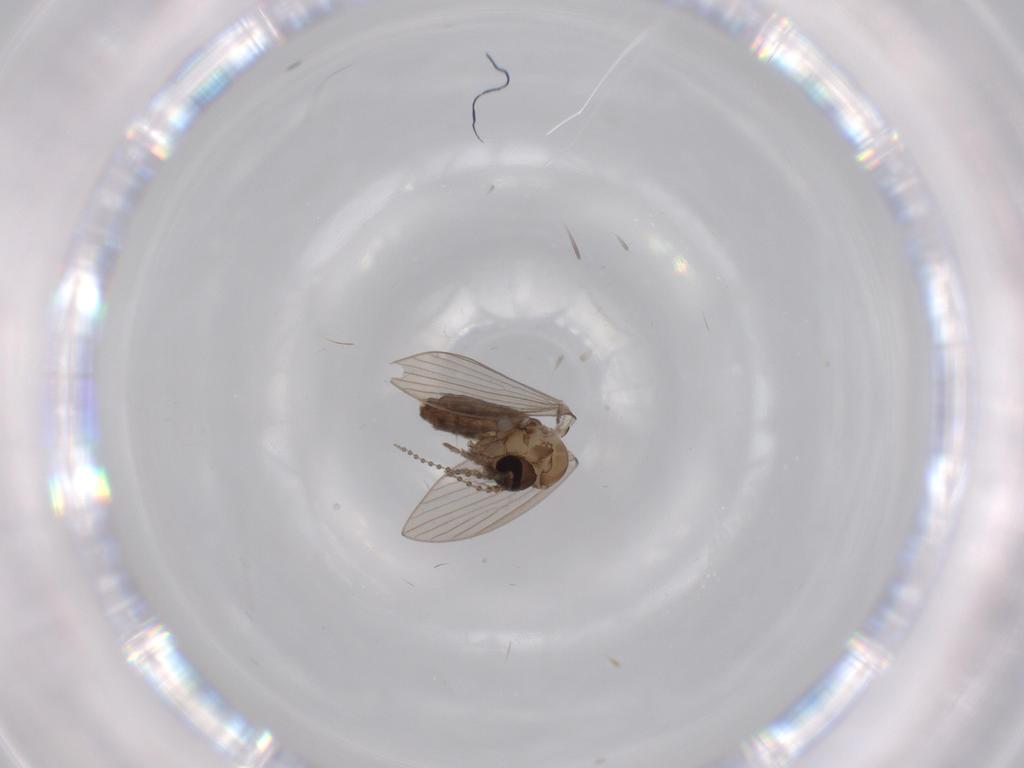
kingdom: Animalia
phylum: Arthropoda
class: Insecta
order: Diptera
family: Psychodidae
